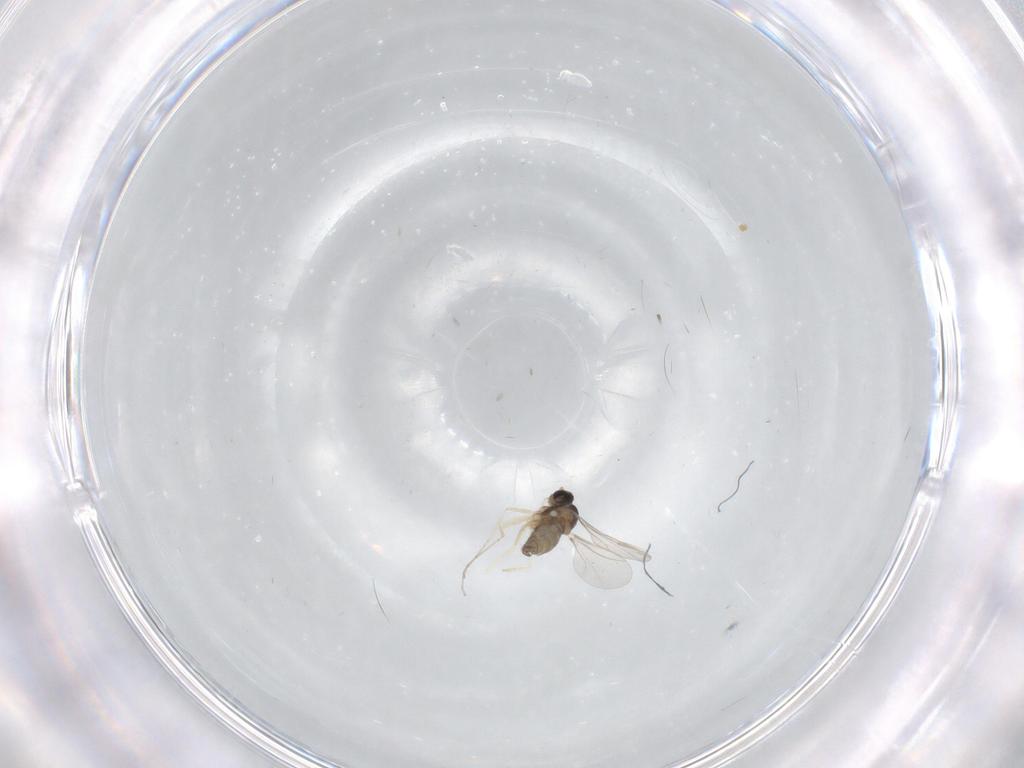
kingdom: Animalia
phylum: Arthropoda
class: Insecta
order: Diptera
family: Cecidomyiidae
